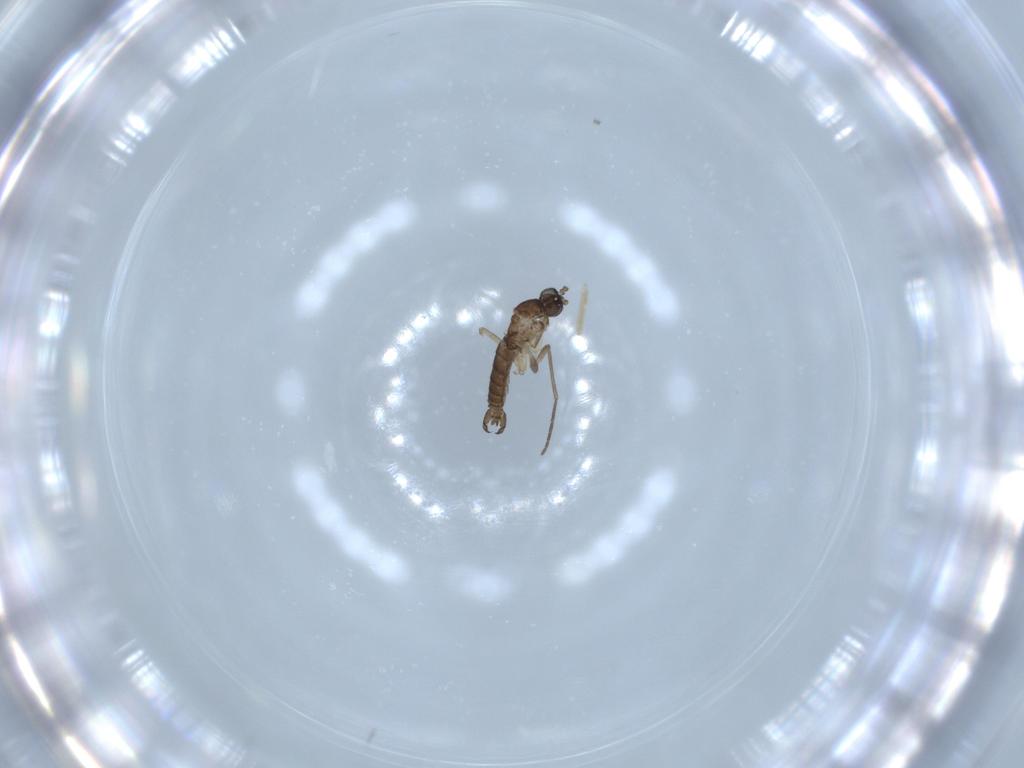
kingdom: Animalia
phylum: Arthropoda
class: Insecta
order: Diptera
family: Sciaridae
